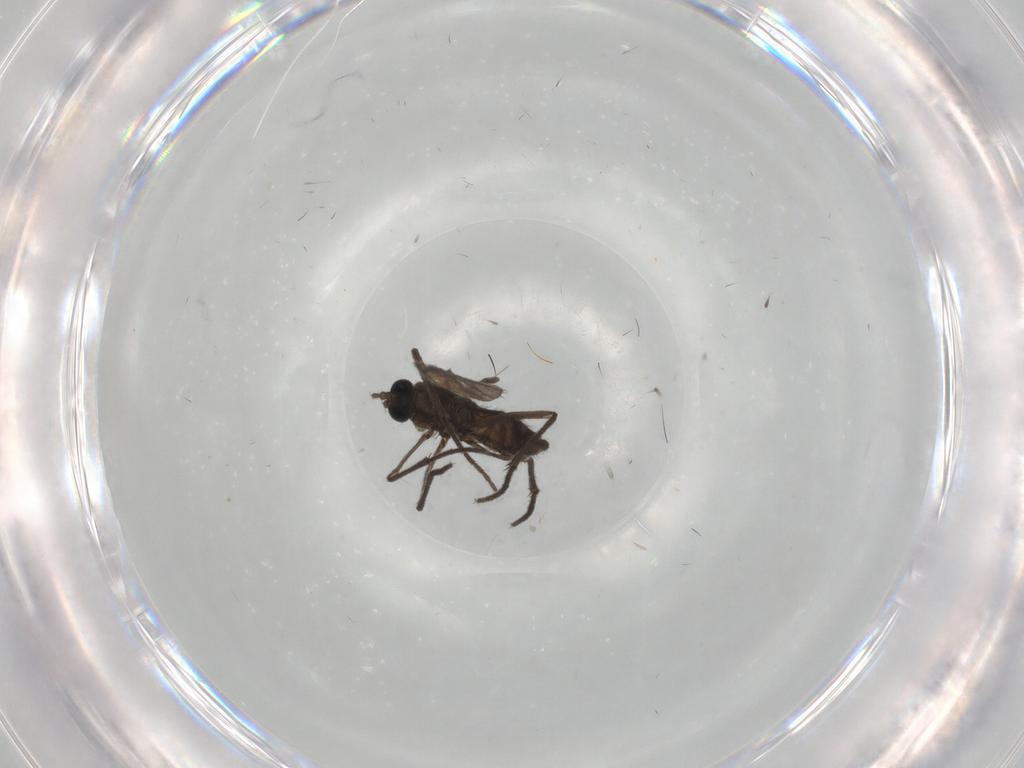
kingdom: Animalia
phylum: Arthropoda
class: Insecta
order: Diptera
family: Sciaridae
